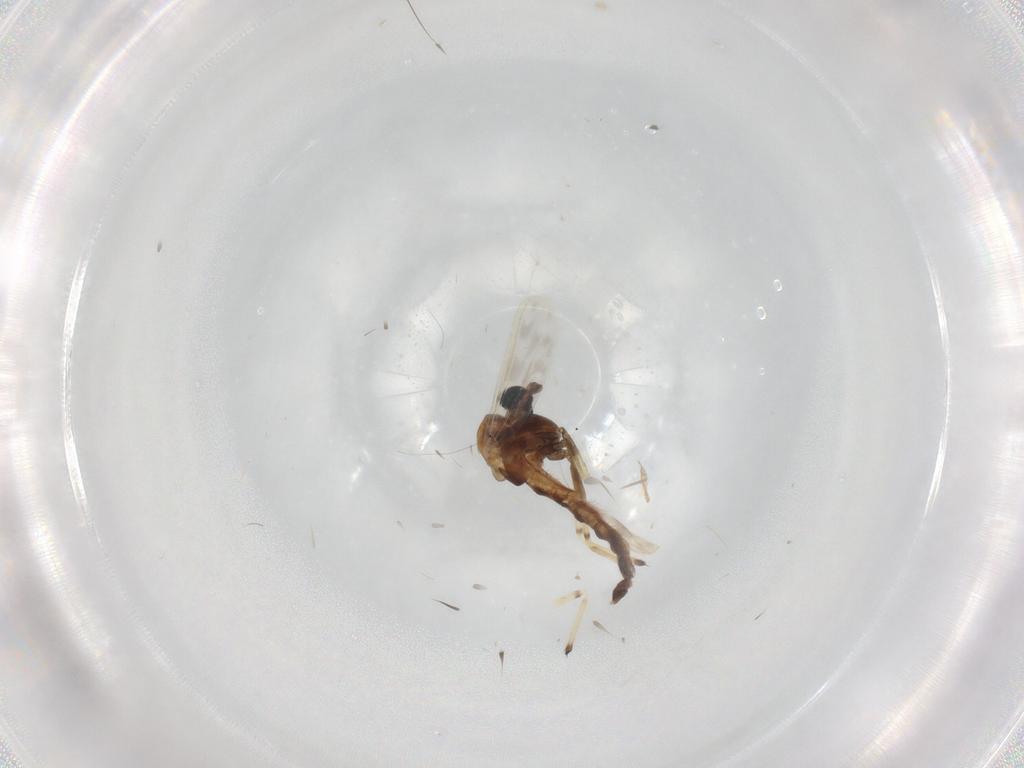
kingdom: Animalia
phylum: Arthropoda
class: Insecta
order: Diptera
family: Chironomidae
